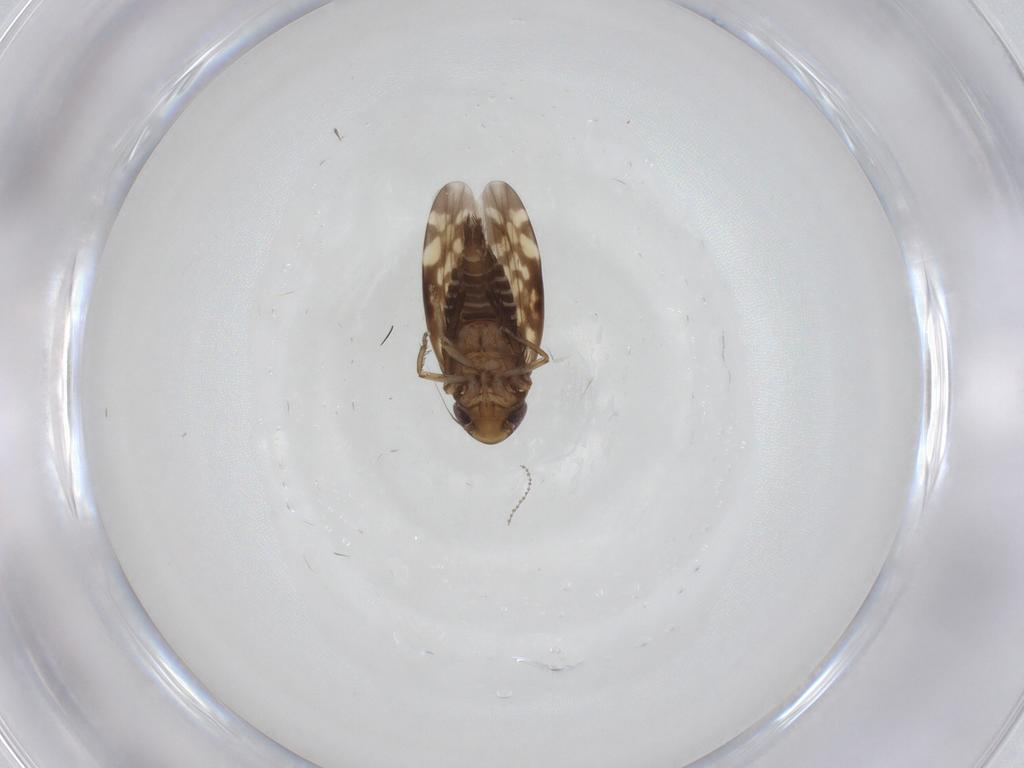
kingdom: Animalia
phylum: Arthropoda
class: Insecta
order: Hemiptera
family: Cicadellidae
